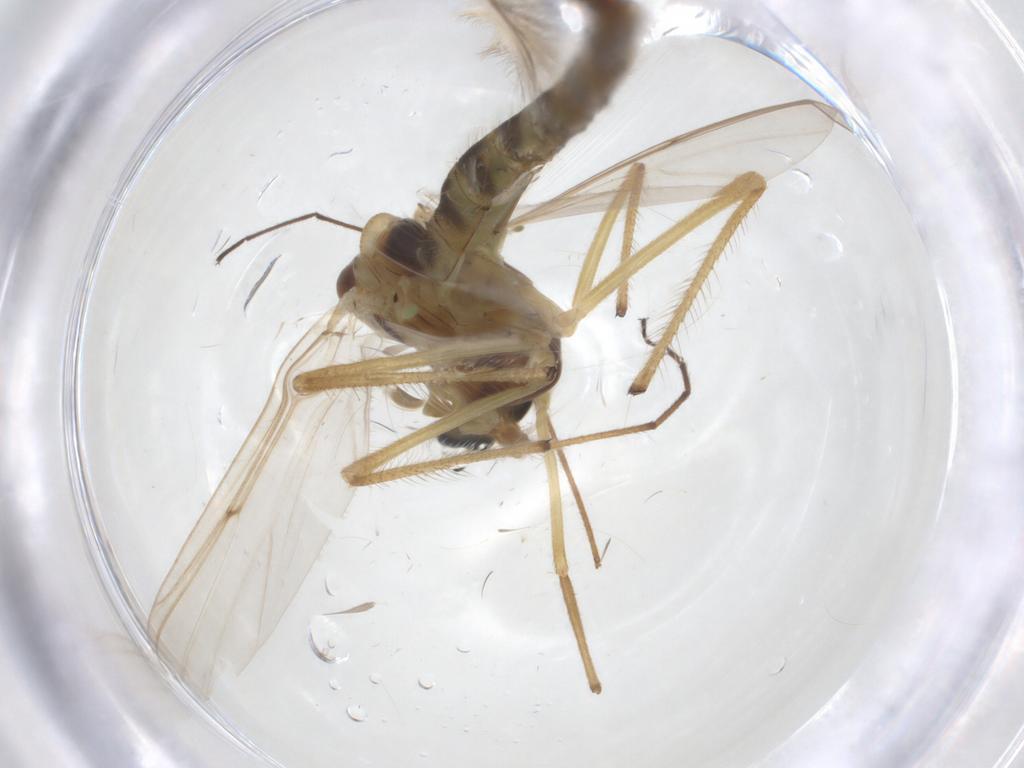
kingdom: Animalia
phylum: Arthropoda
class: Insecta
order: Diptera
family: Chironomidae
